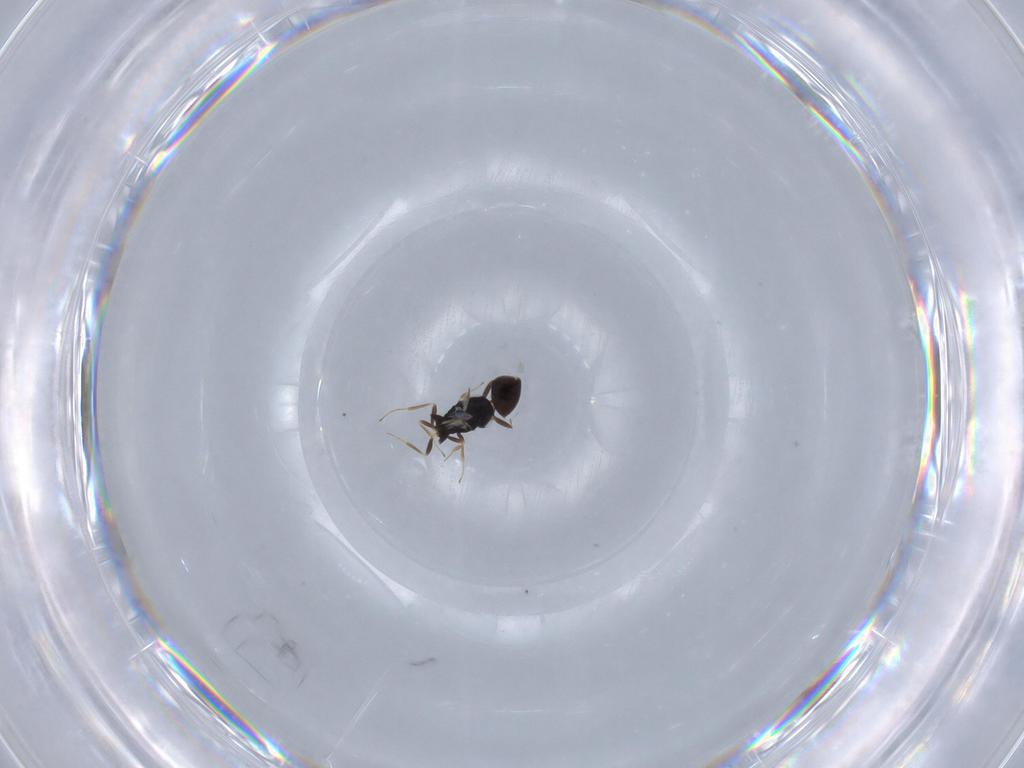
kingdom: Animalia
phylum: Arthropoda
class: Insecta
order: Hymenoptera
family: Scelionidae
